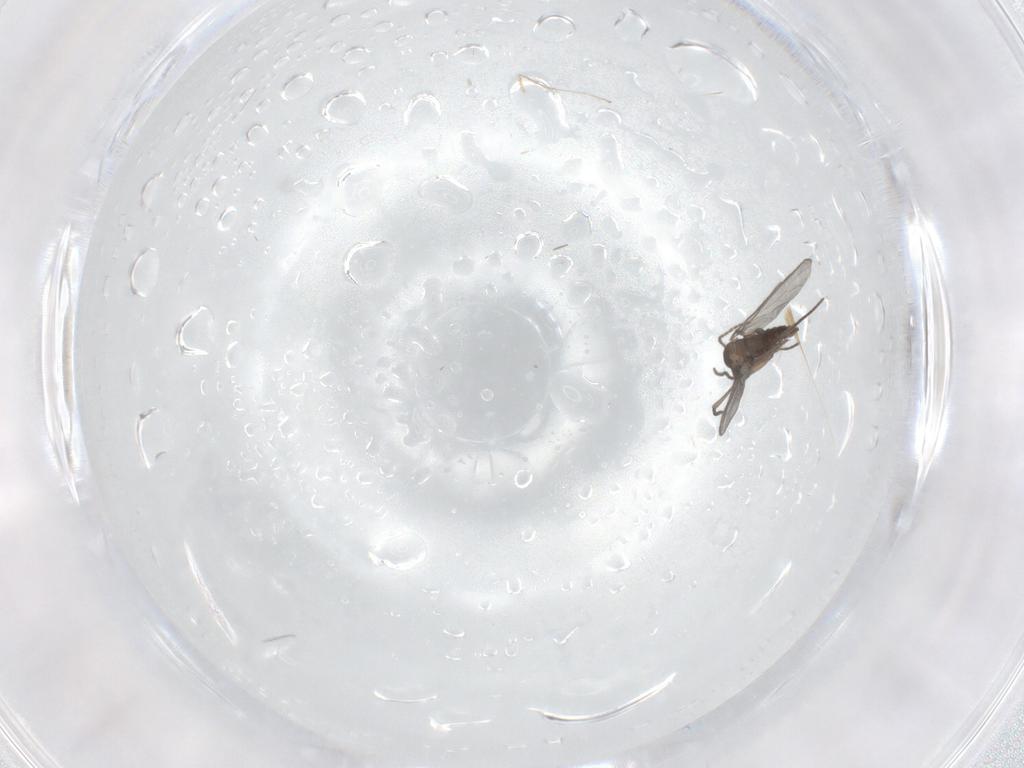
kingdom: Animalia
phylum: Arthropoda
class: Insecta
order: Diptera
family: Sciaridae
